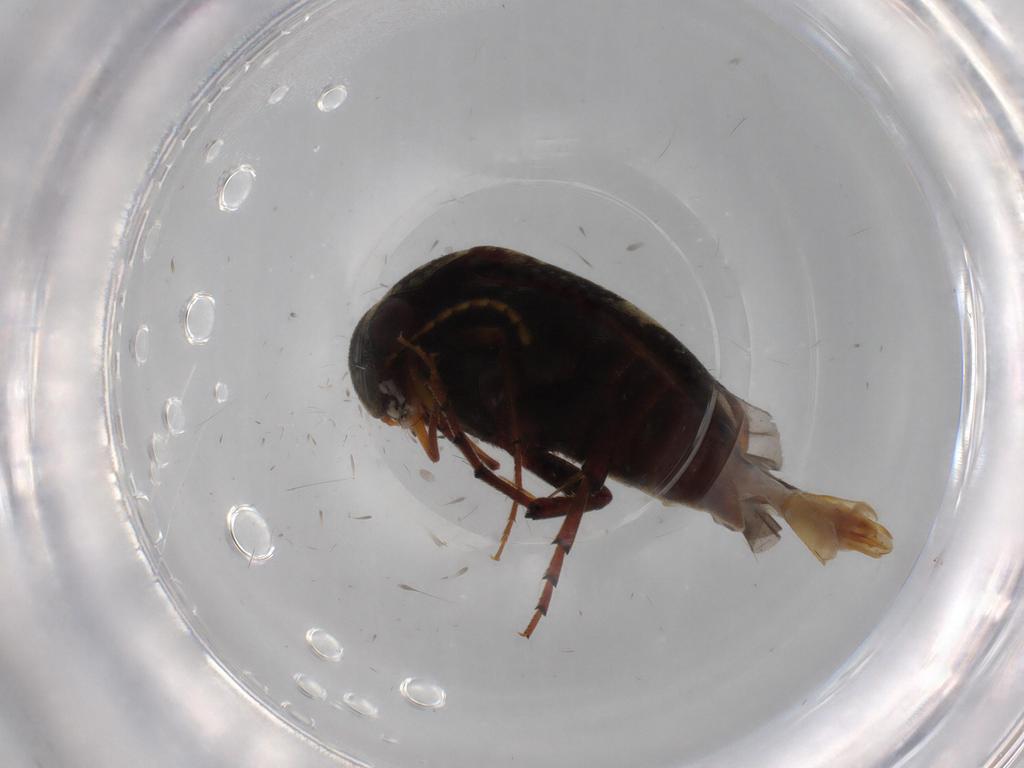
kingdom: Animalia
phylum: Arthropoda
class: Insecta
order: Coleoptera
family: Mordellidae
